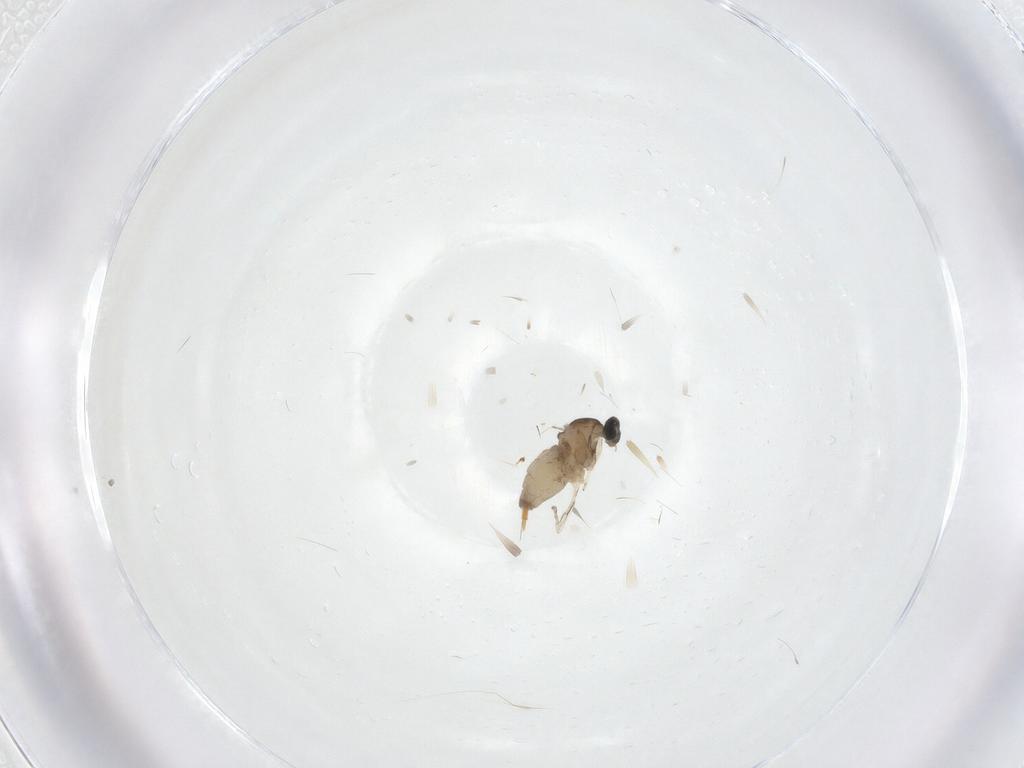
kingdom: Animalia
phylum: Arthropoda
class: Insecta
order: Diptera
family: Cecidomyiidae
